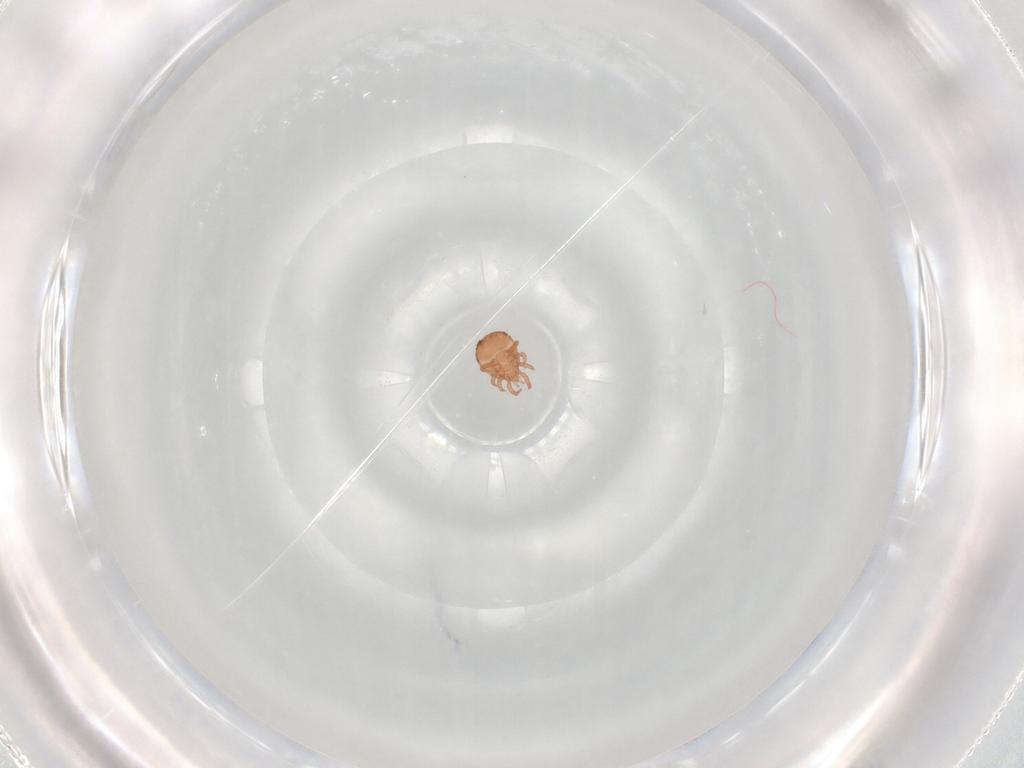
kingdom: Animalia
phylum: Arthropoda
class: Arachnida
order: Mesostigmata
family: Zerconidae
